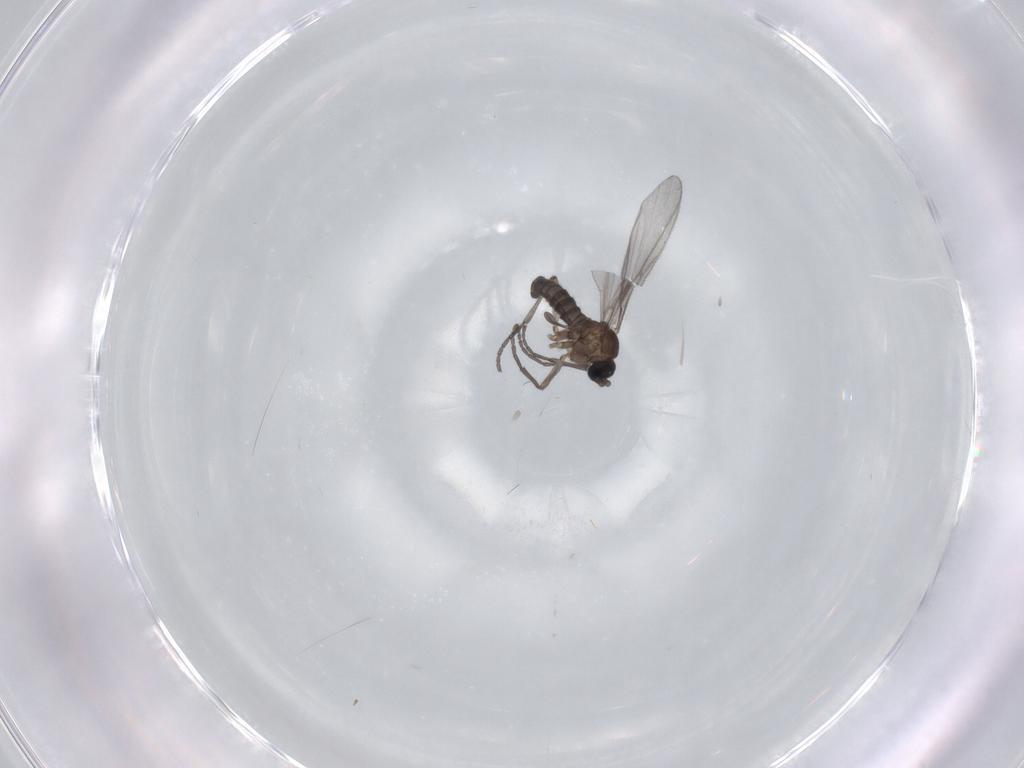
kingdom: Animalia
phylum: Arthropoda
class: Insecta
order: Diptera
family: Sciaridae
